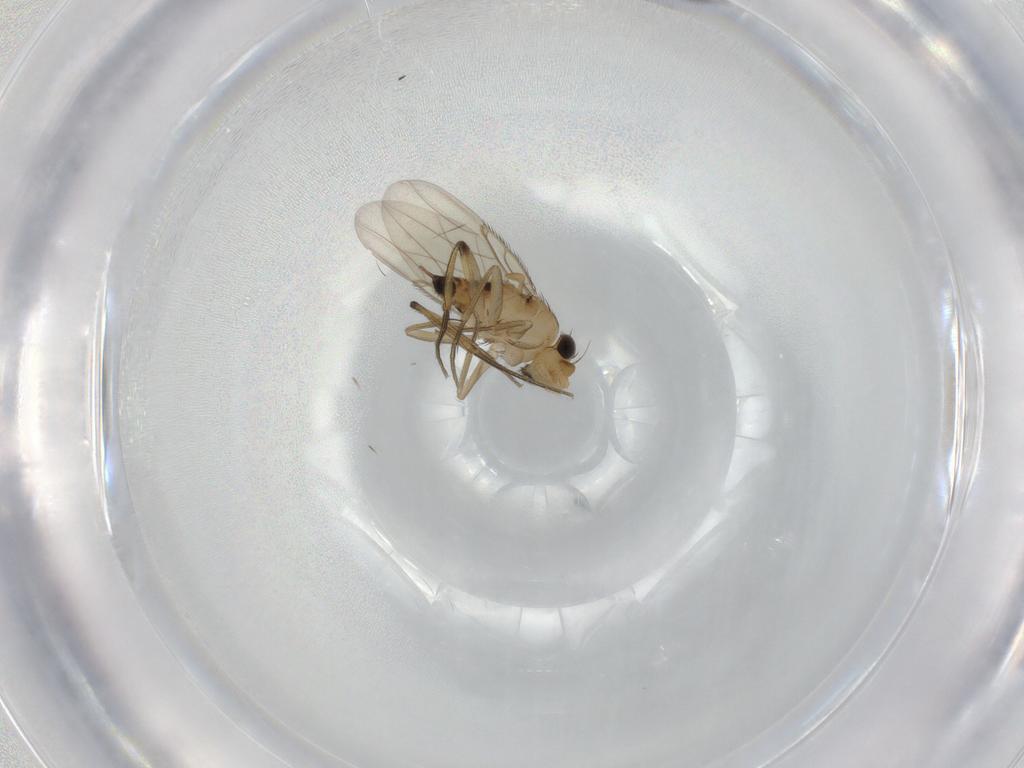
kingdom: Animalia
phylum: Arthropoda
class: Insecta
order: Diptera
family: Phoridae
